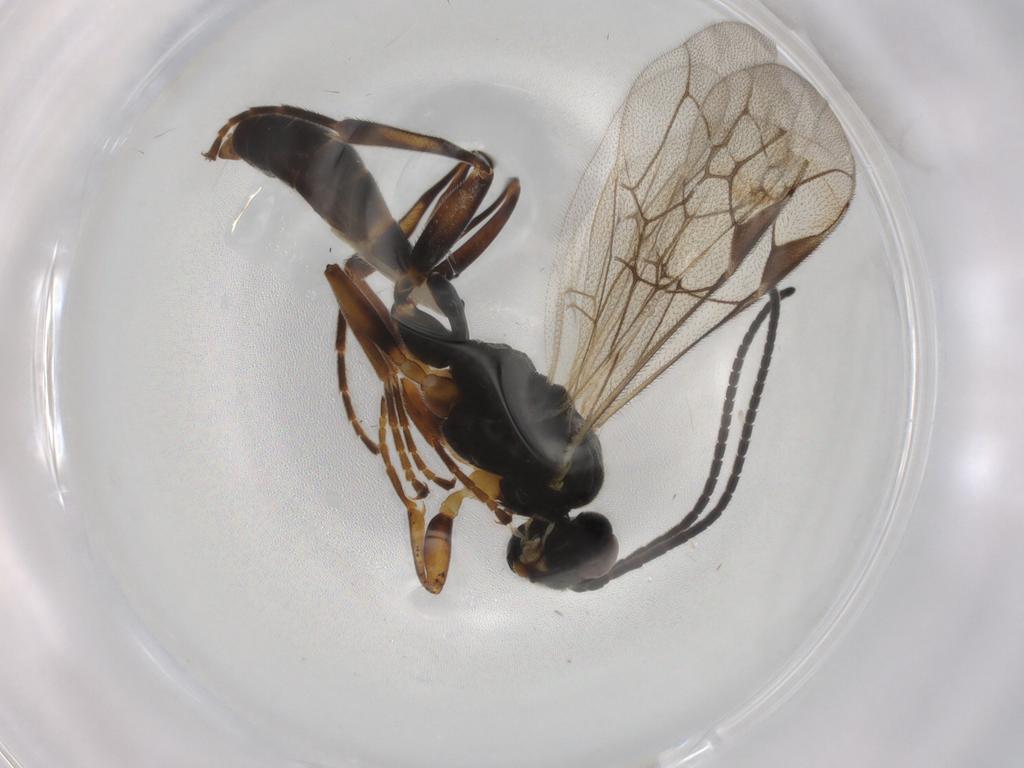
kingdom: Animalia
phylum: Arthropoda
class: Insecta
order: Hymenoptera
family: Ichneumonidae
